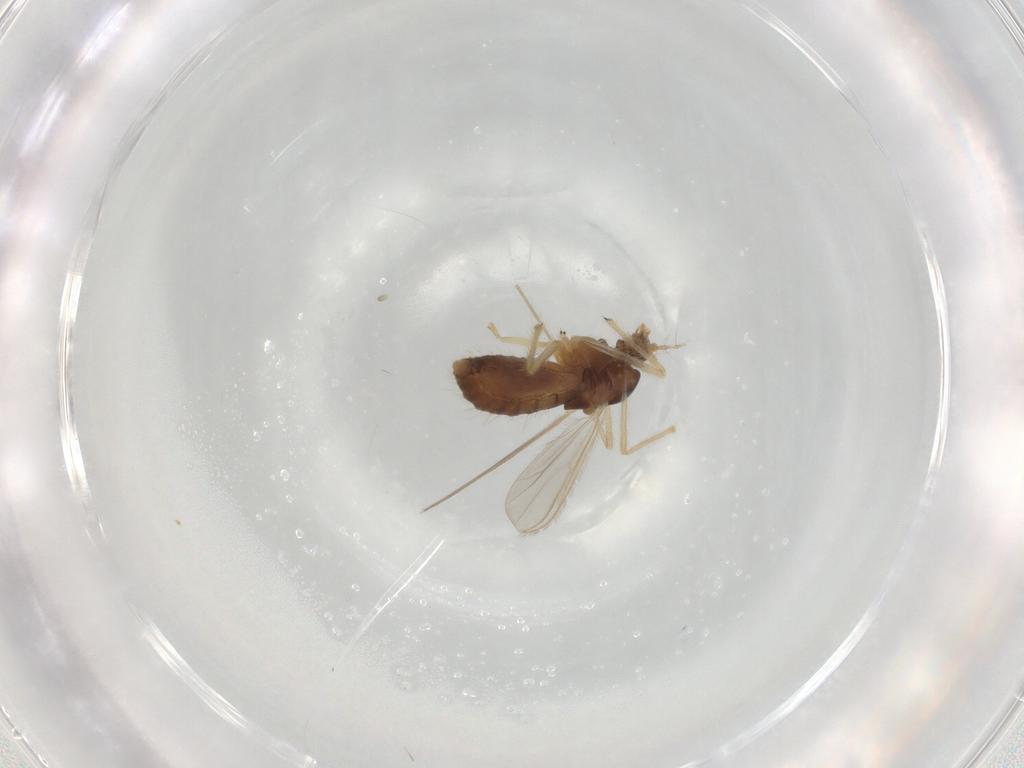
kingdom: Animalia
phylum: Arthropoda
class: Insecta
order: Diptera
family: Chironomidae
